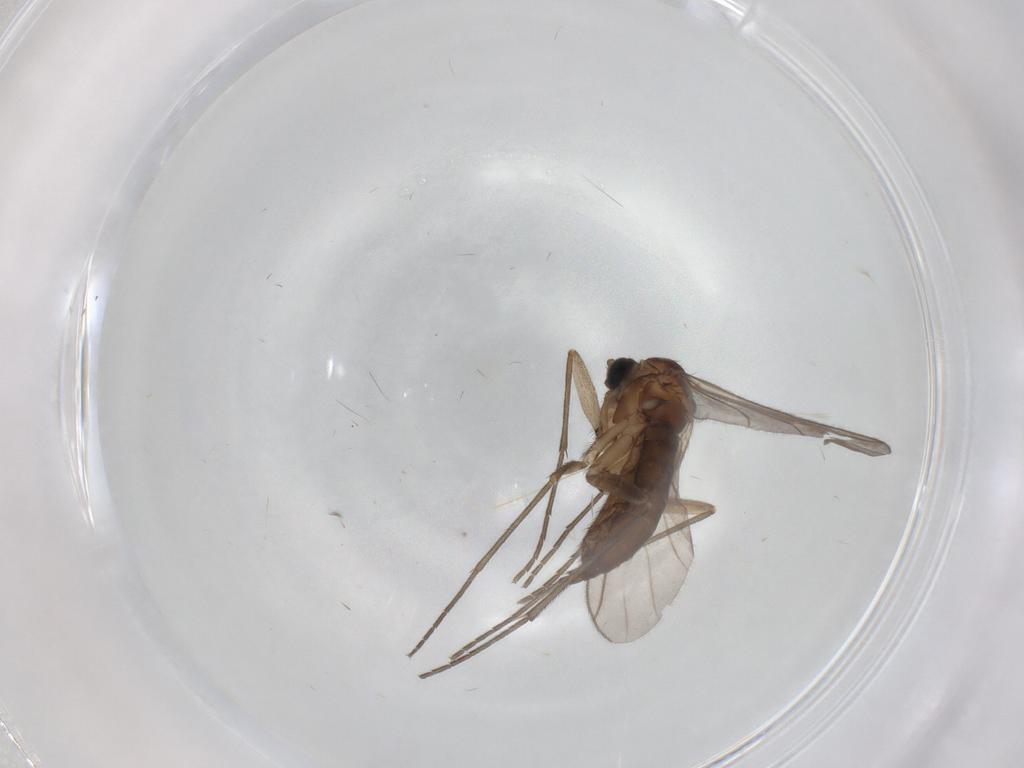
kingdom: Animalia
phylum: Arthropoda
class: Insecta
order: Diptera
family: Sciaridae
